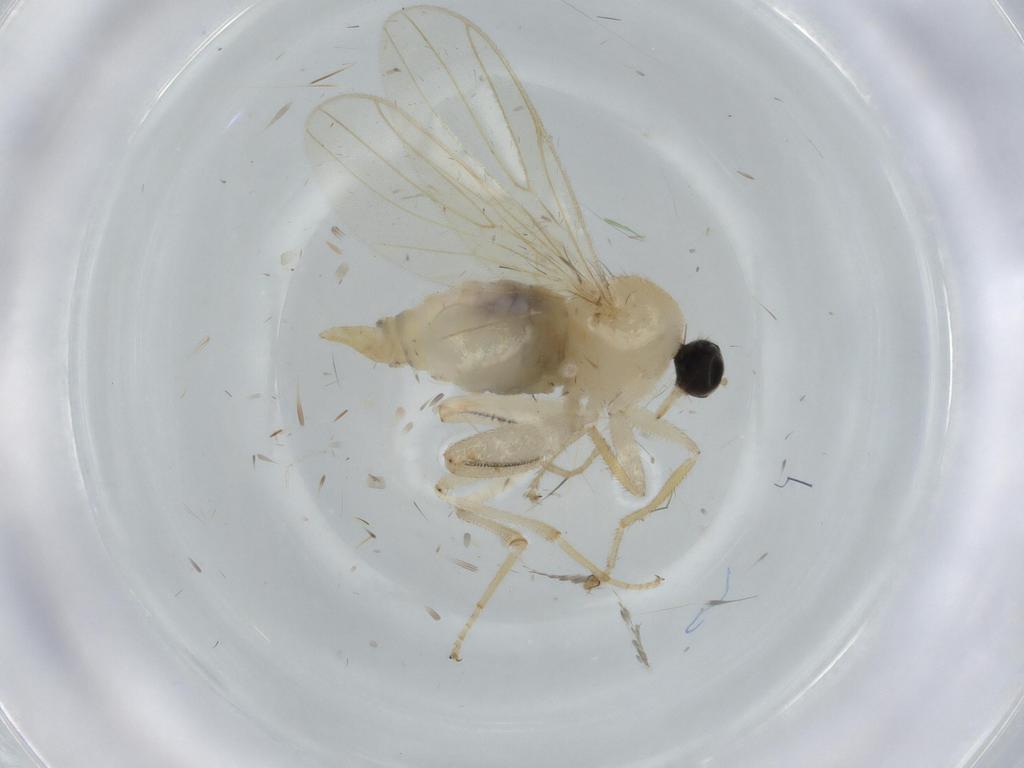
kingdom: Animalia
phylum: Arthropoda
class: Insecta
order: Diptera
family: Hybotidae
